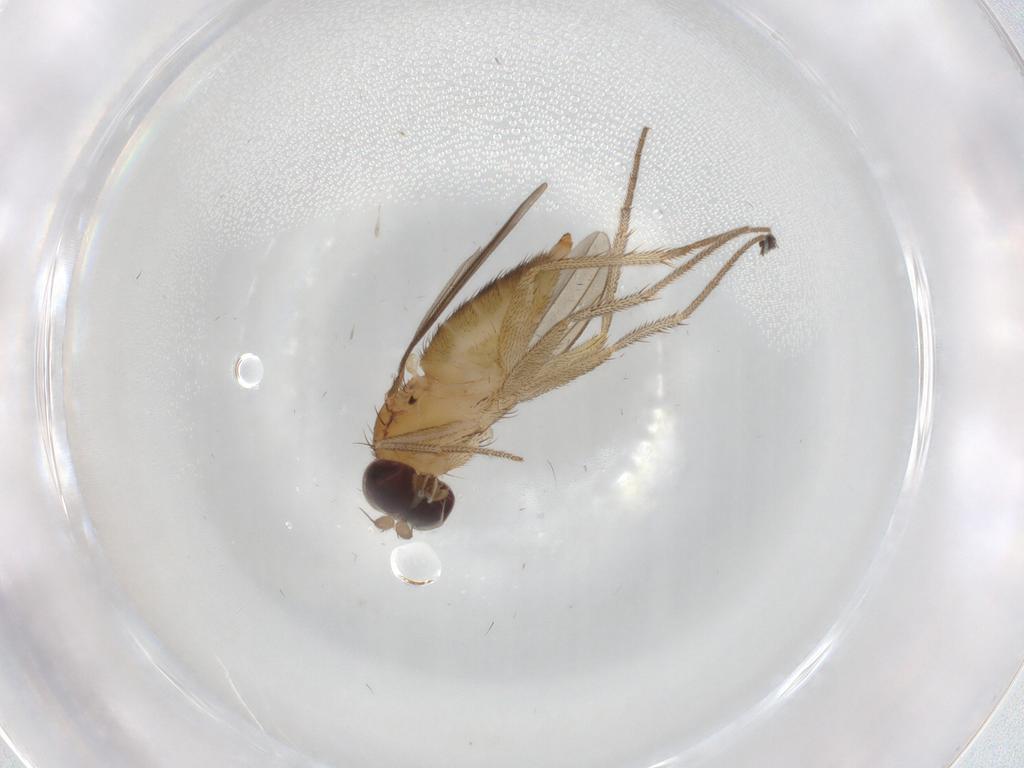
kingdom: Animalia
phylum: Arthropoda
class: Insecta
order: Diptera
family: Dolichopodidae
